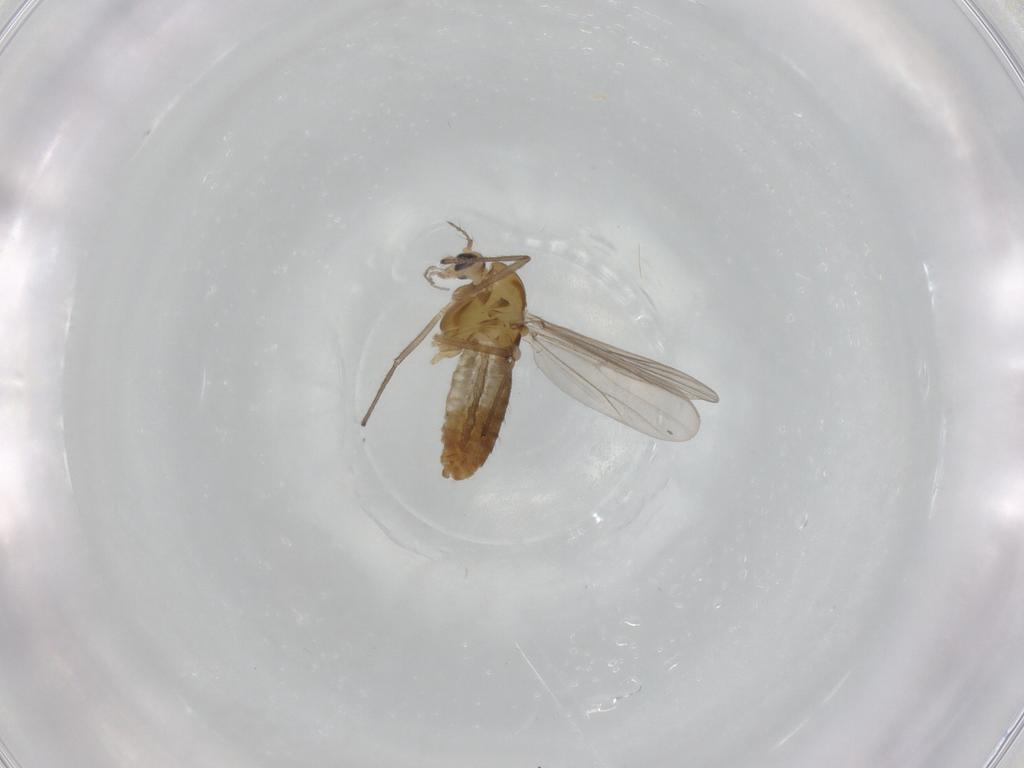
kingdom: Animalia
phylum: Arthropoda
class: Insecta
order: Diptera
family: Chironomidae
